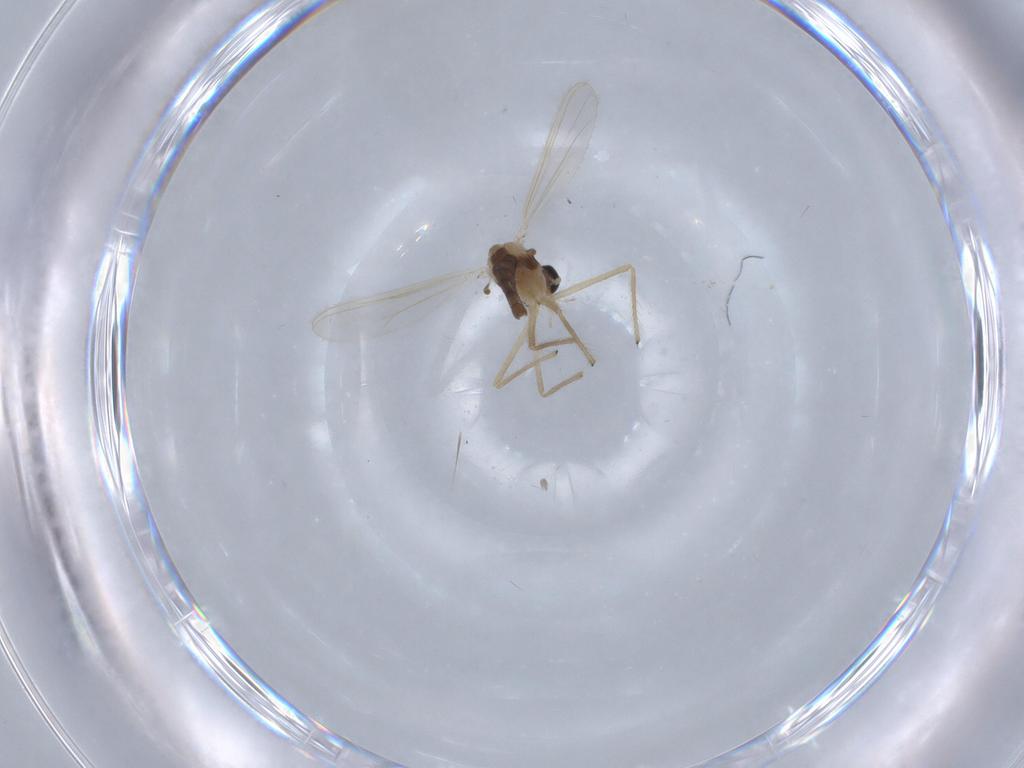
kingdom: Animalia
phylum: Arthropoda
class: Insecta
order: Diptera
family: Chironomidae
